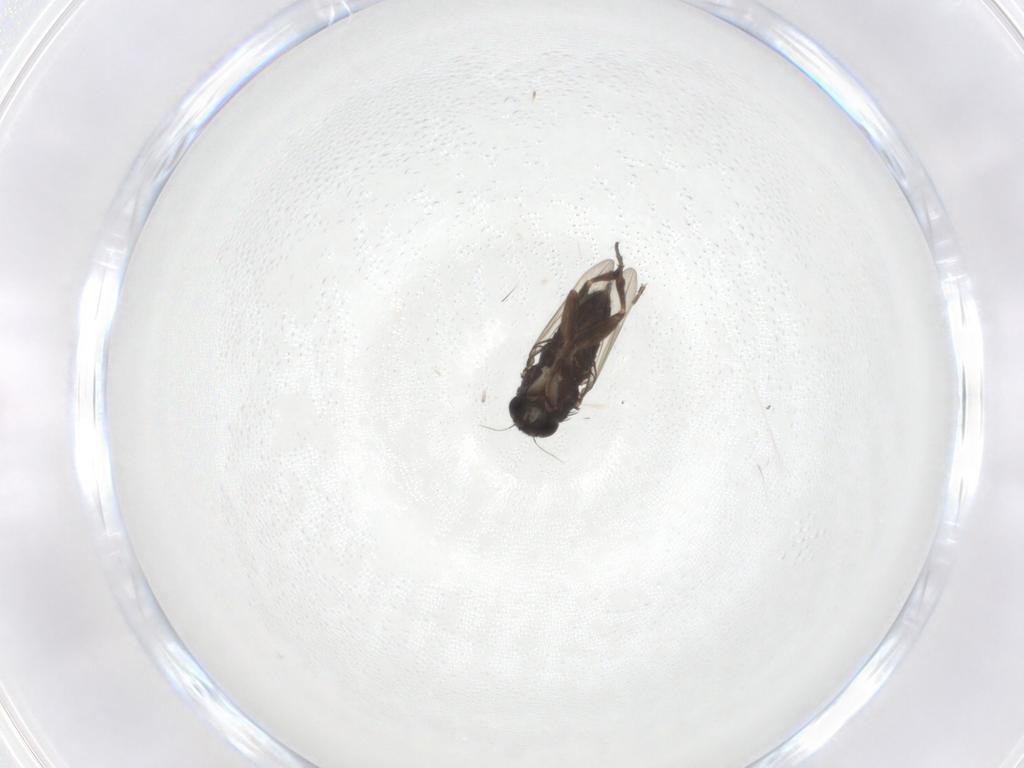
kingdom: Animalia
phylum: Arthropoda
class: Insecta
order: Diptera
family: Phoridae
